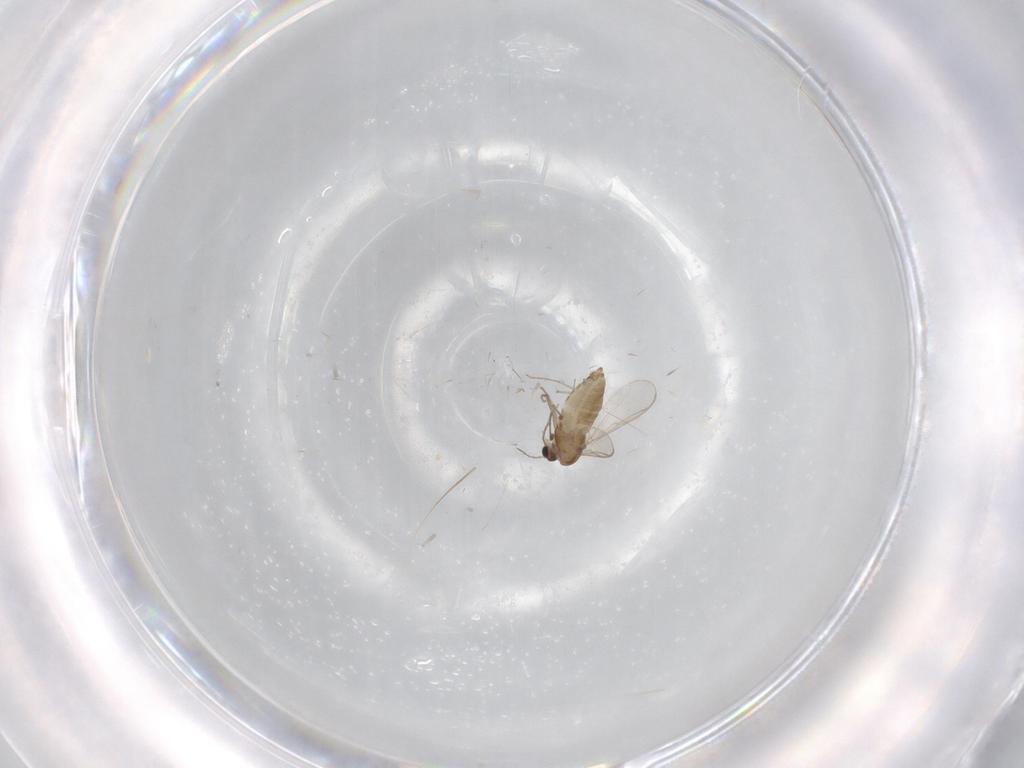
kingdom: Animalia
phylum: Arthropoda
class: Insecta
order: Diptera
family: Chironomidae
